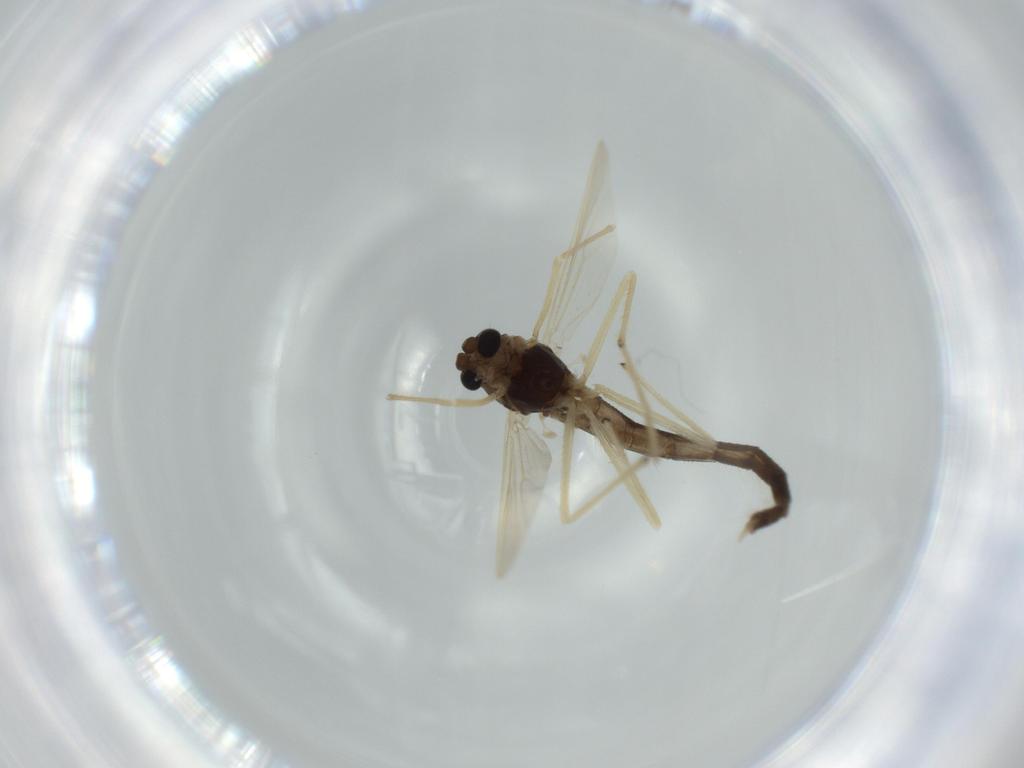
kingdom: Animalia
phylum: Arthropoda
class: Insecta
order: Diptera
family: Chironomidae
